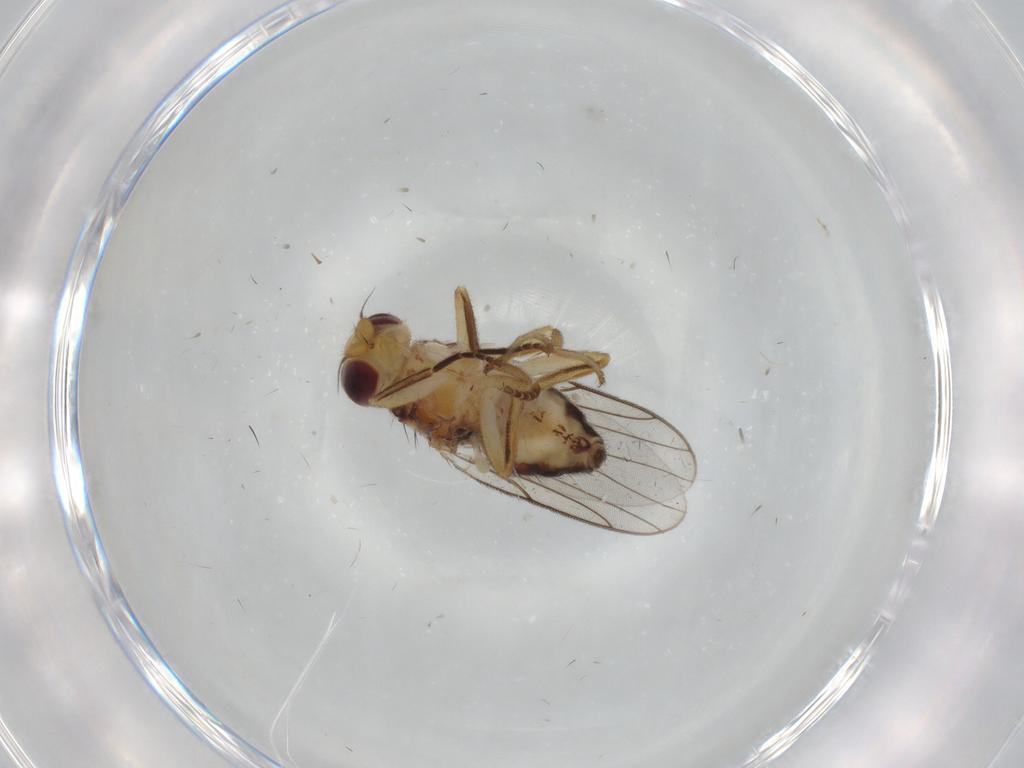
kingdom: Animalia
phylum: Arthropoda
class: Insecta
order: Diptera
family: Chloropidae
